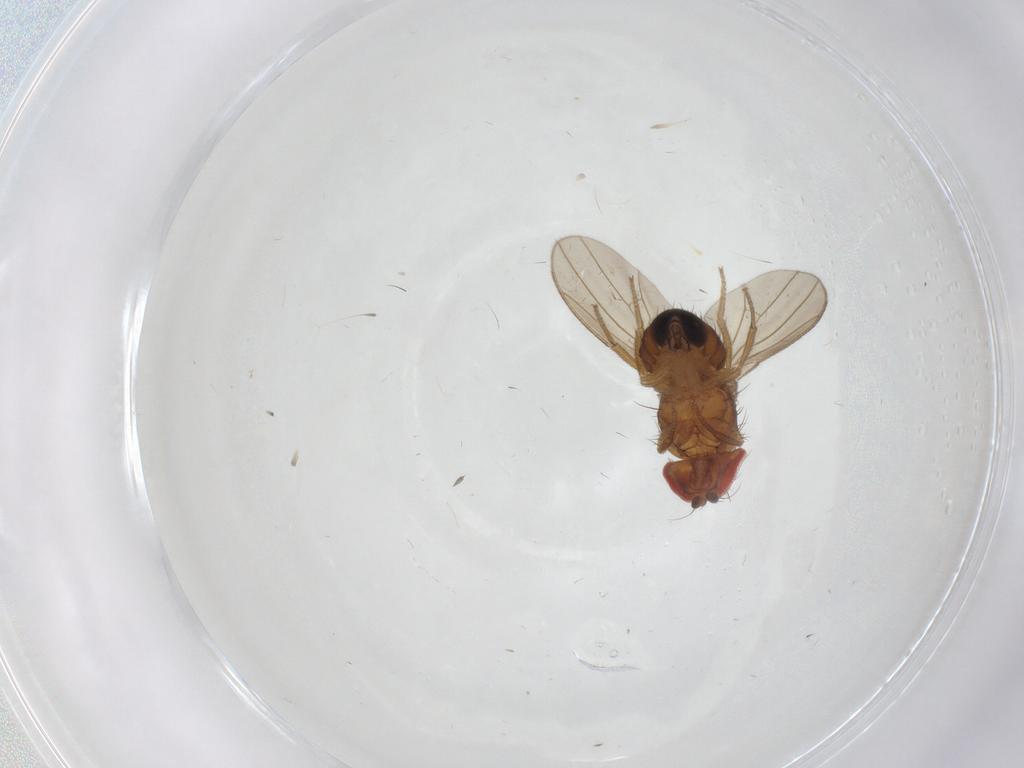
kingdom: Animalia
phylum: Arthropoda
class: Insecta
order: Diptera
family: Drosophilidae
